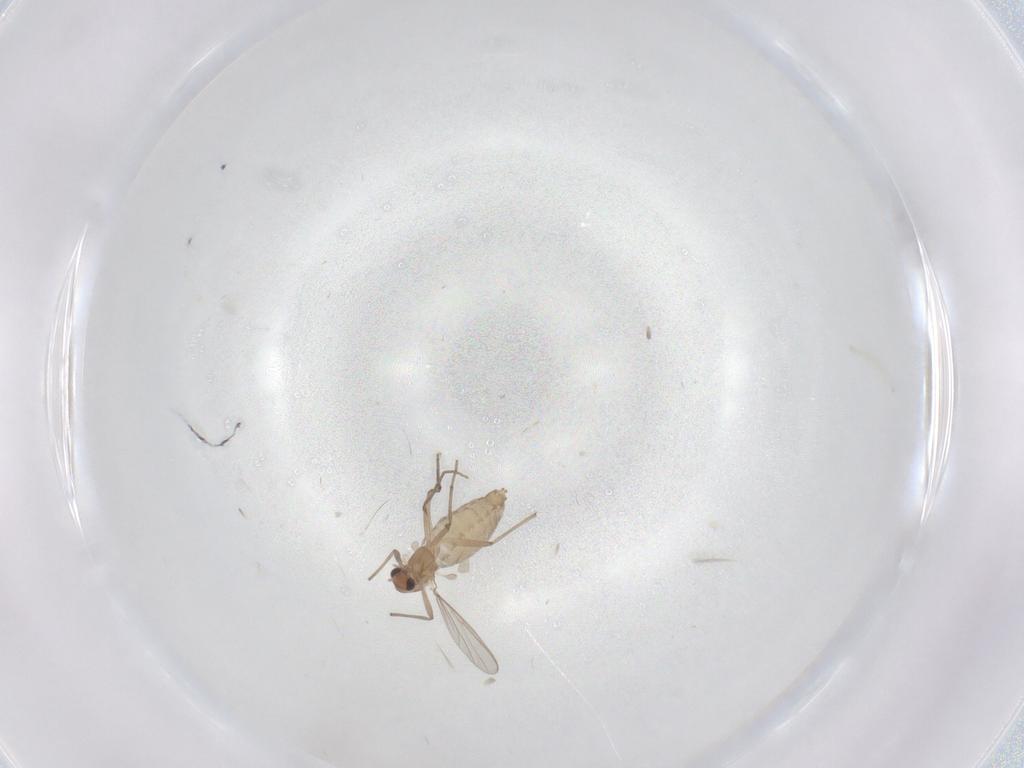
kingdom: Animalia
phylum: Arthropoda
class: Insecta
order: Diptera
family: Chironomidae
